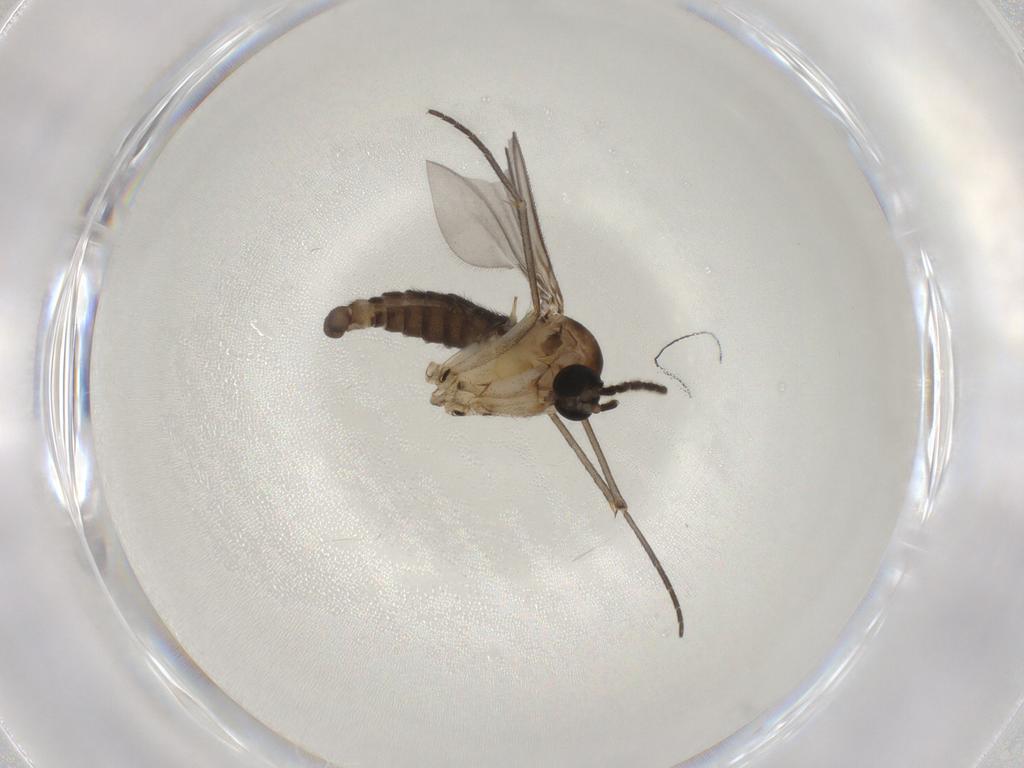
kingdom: Animalia
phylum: Arthropoda
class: Insecta
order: Diptera
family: Sciaridae
